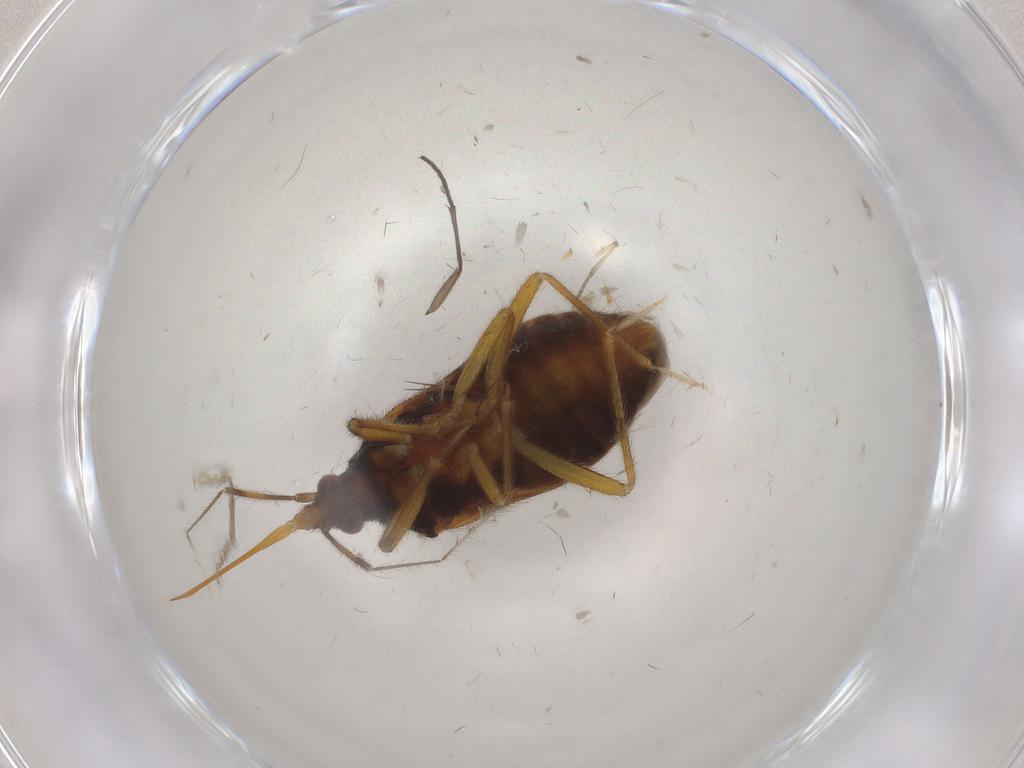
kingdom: Animalia
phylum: Arthropoda
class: Insecta
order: Hemiptera
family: Anthocoridae
